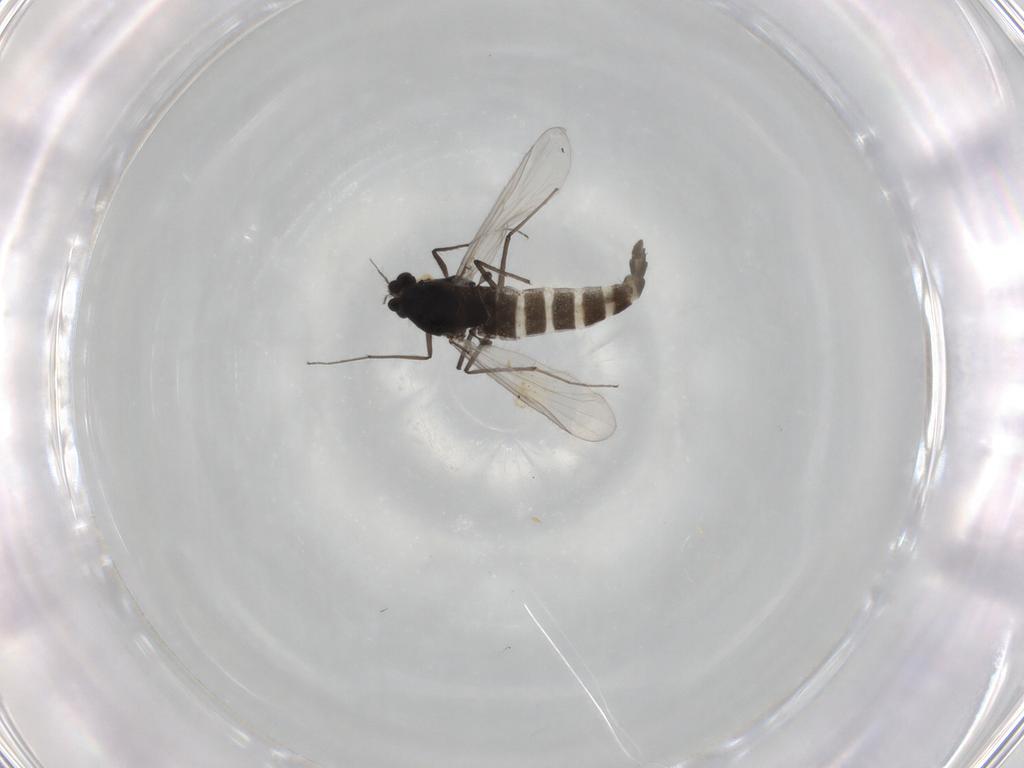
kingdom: Animalia
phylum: Arthropoda
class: Insecta
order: Diptera
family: Chironomidae
